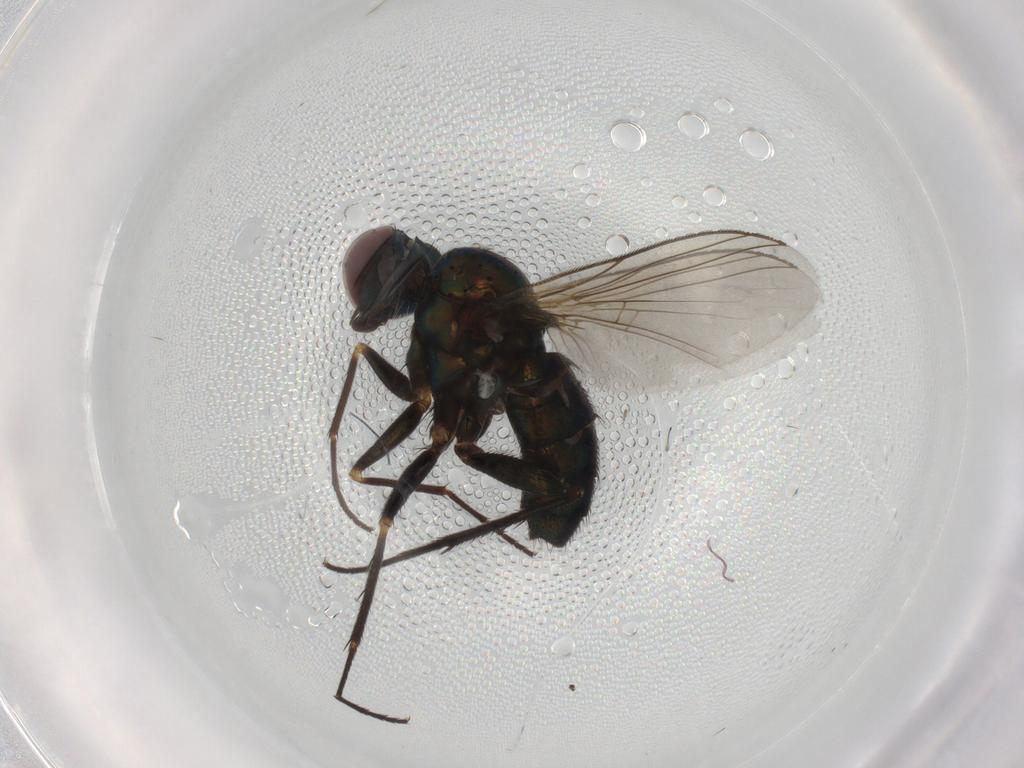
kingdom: Animalia
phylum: Arthropoda
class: Insecta
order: Diptera
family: Dolichopodidae
